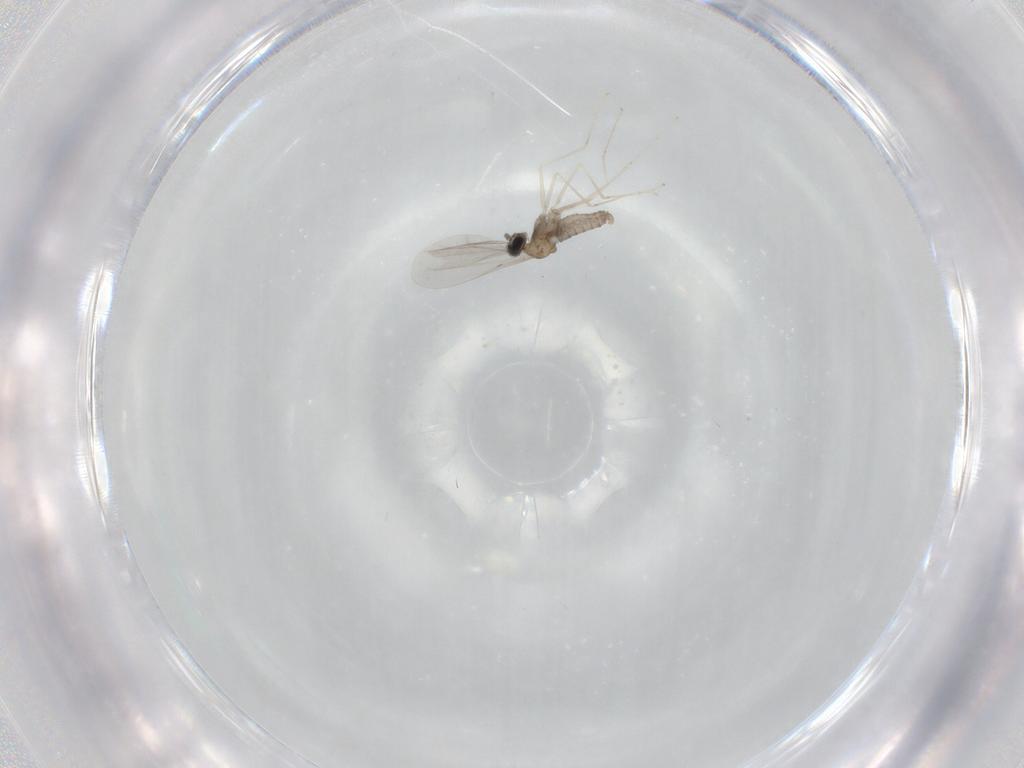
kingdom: Animalia
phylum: Arthropoda
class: Insecta
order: Diptera
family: Cecidomyiidae
